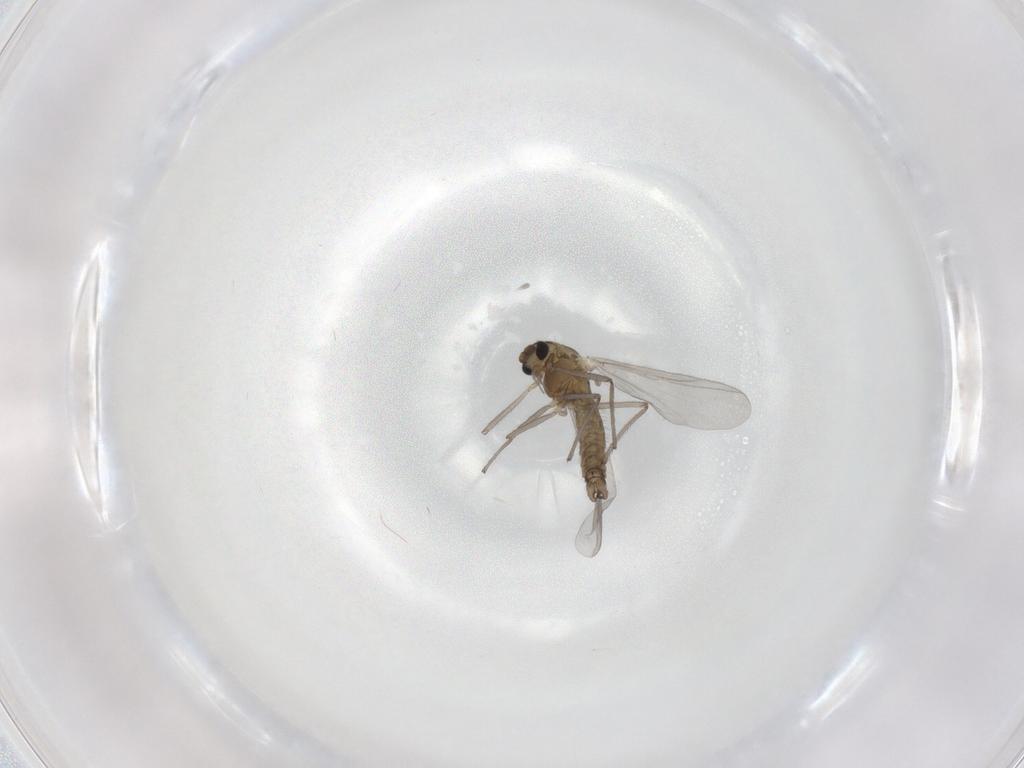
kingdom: Animalia
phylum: Arthropoda
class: Insecta
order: Diptera
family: Chironomidae
